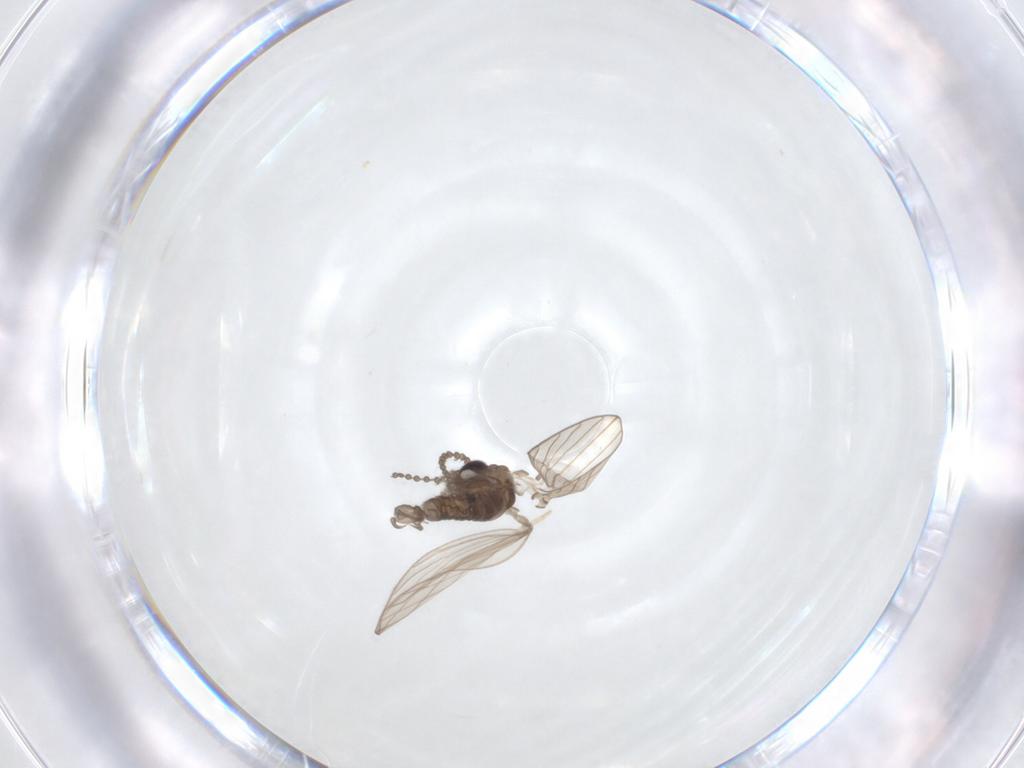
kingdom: Animalia
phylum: Arthropoda
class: Insecta
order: Diptera
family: Psychodidae
